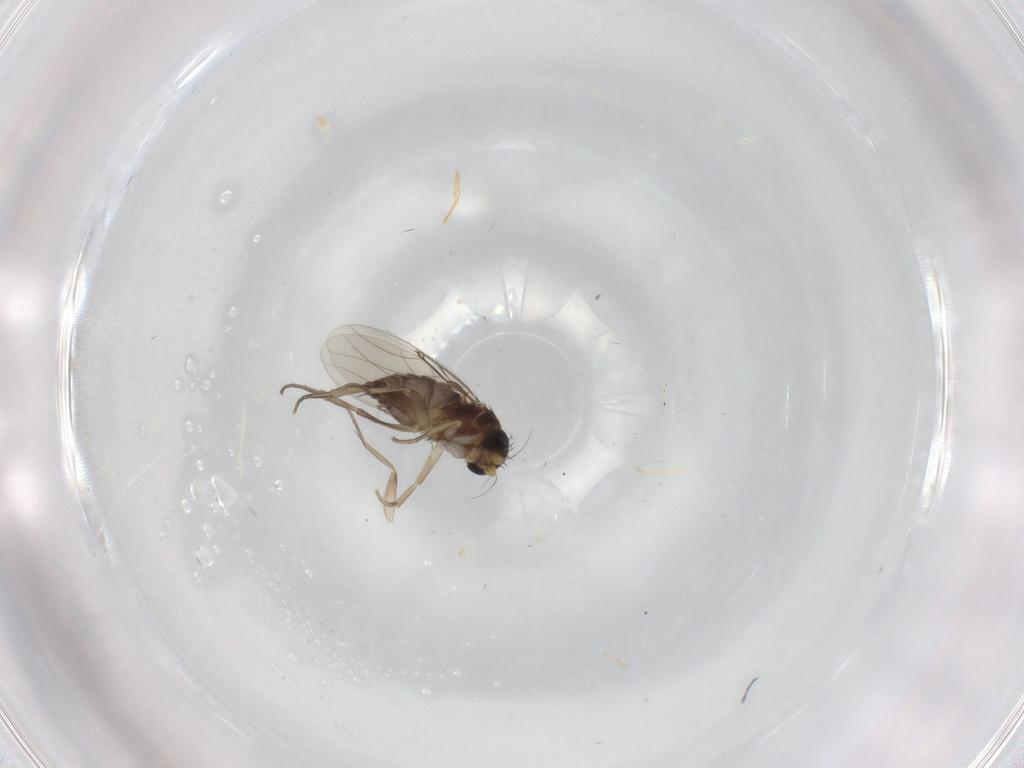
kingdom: Animalia
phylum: Arthropoda
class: Insecta
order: Diptera
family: Phoridae
